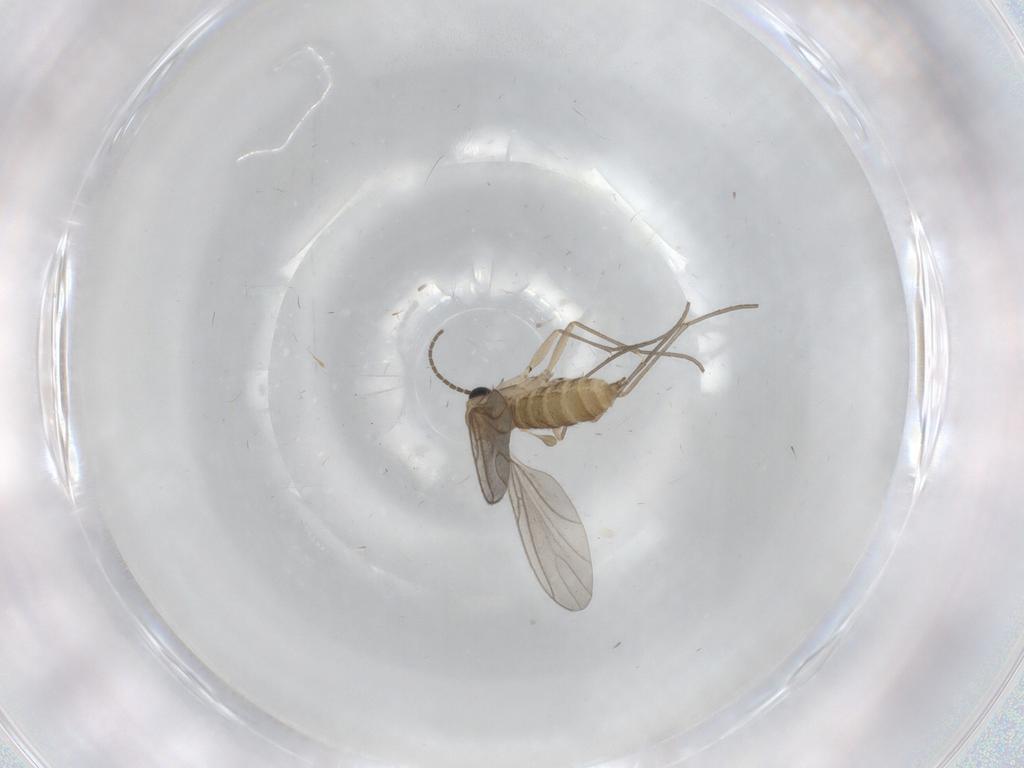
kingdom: Animalia
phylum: Arthropoda
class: Insecta
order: Diptera
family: Sciaridae
